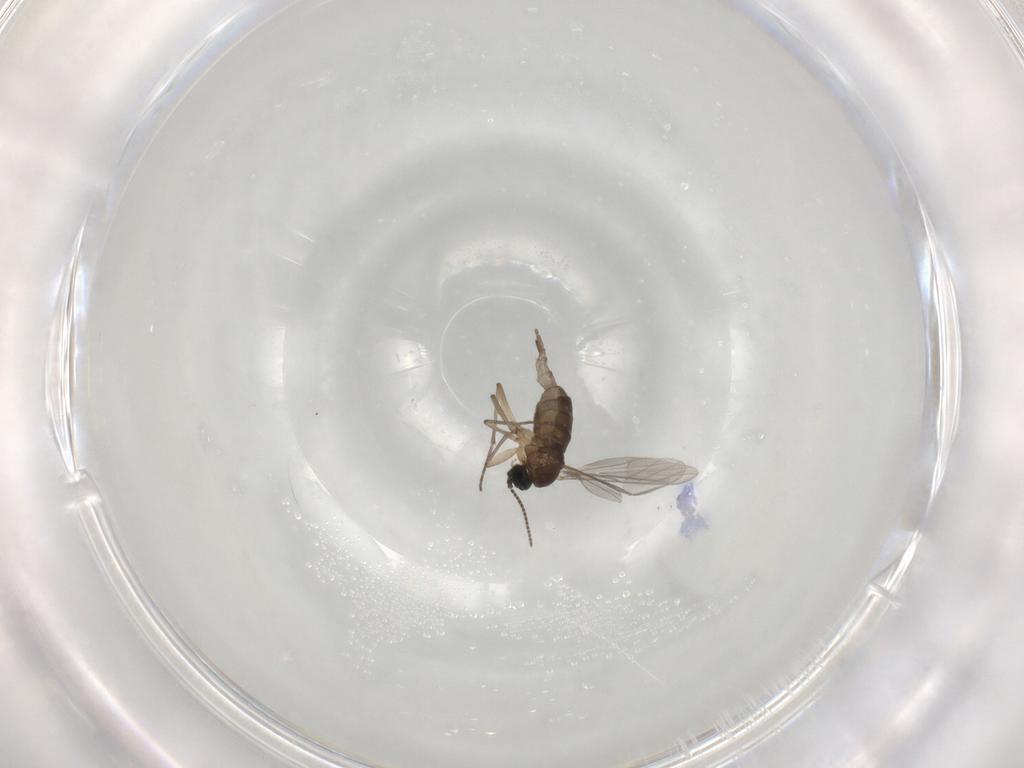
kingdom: Animalia
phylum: Arthropoda
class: Insecta
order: Diptera
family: Sciaridae
